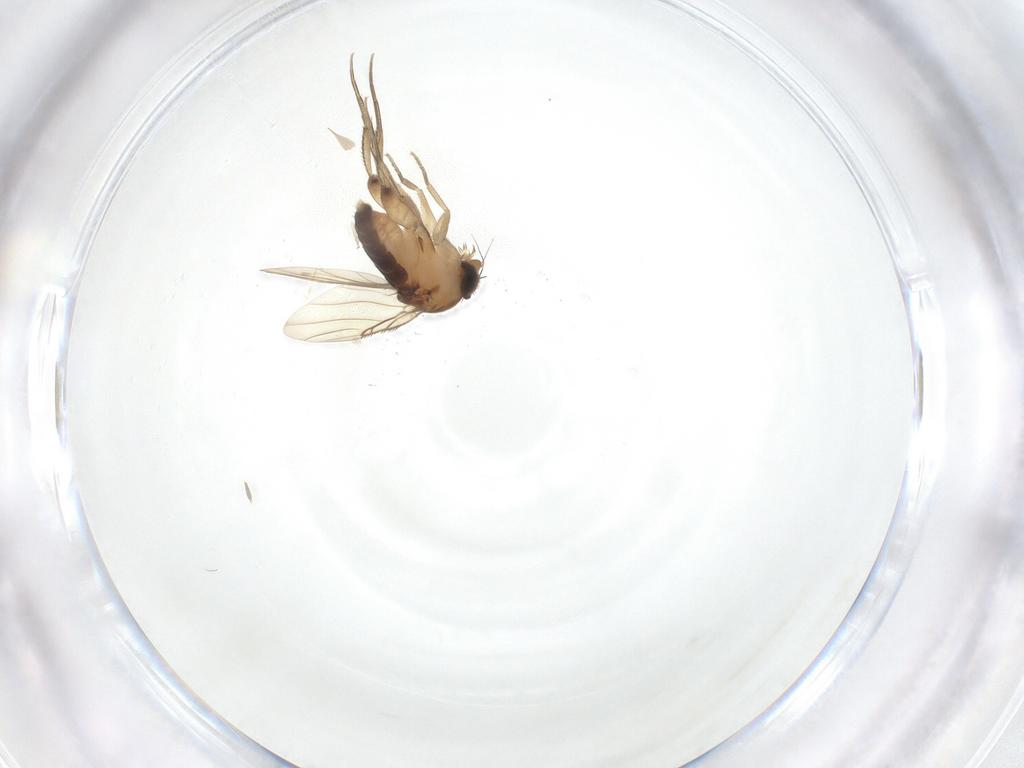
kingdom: Animalia
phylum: Arthropoda
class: Insecta
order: Diptera
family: Phoridae
